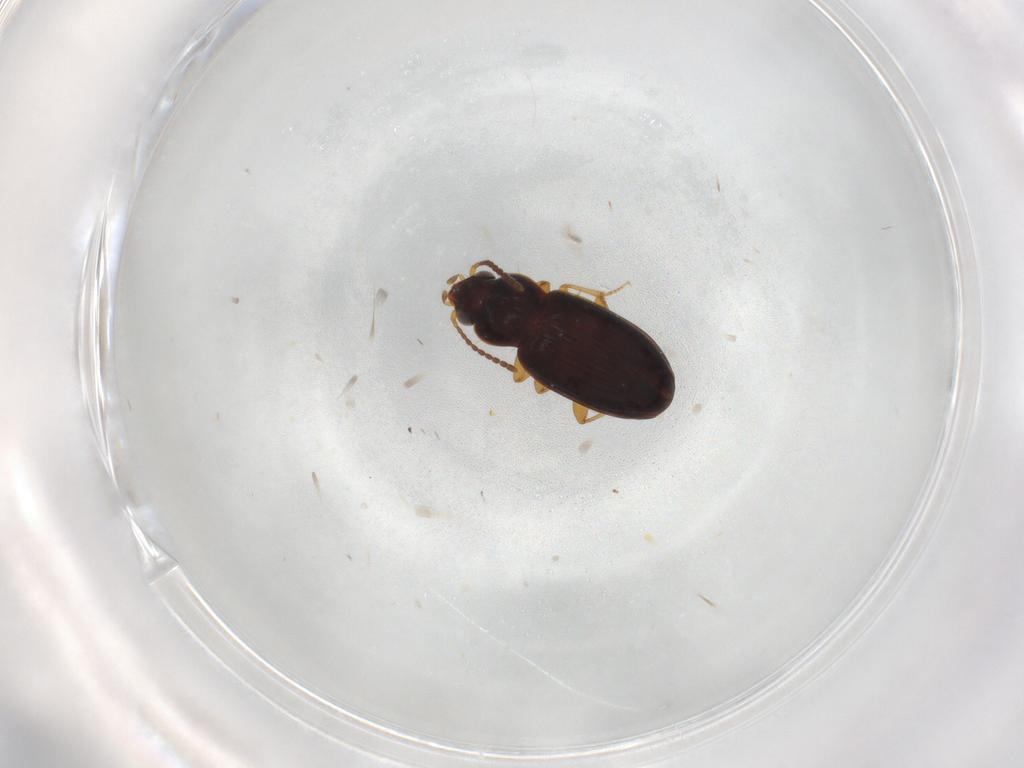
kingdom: Animalia
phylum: Arthropoda
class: Insecta
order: Coleoptera
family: Carabidae
